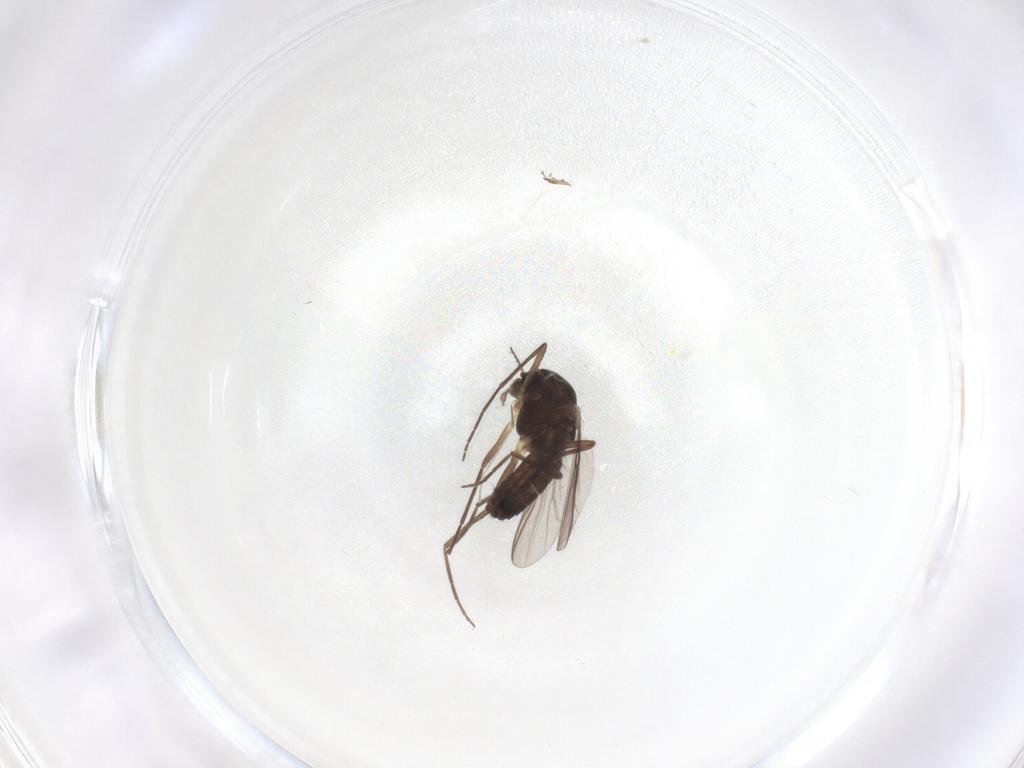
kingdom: Animalia
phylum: Arthropoda
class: Insecta
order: Diptera
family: Chironomidae
